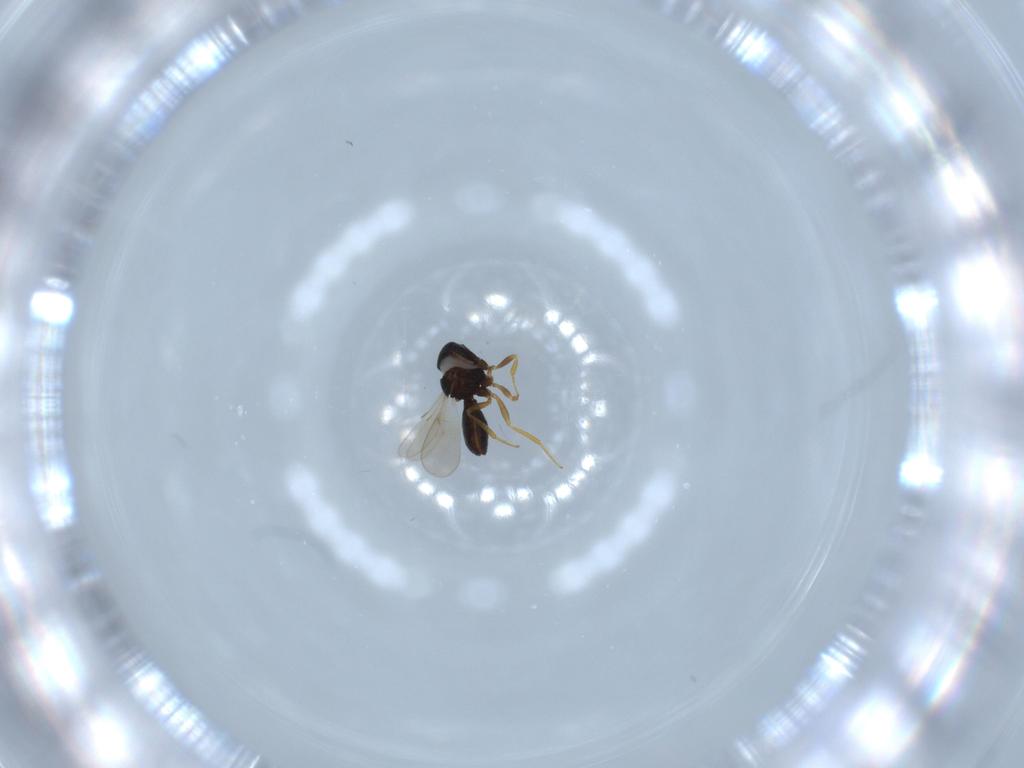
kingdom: Animalia
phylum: Arthropoda
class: Insecta
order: Hymenoptera
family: Scelionidae
